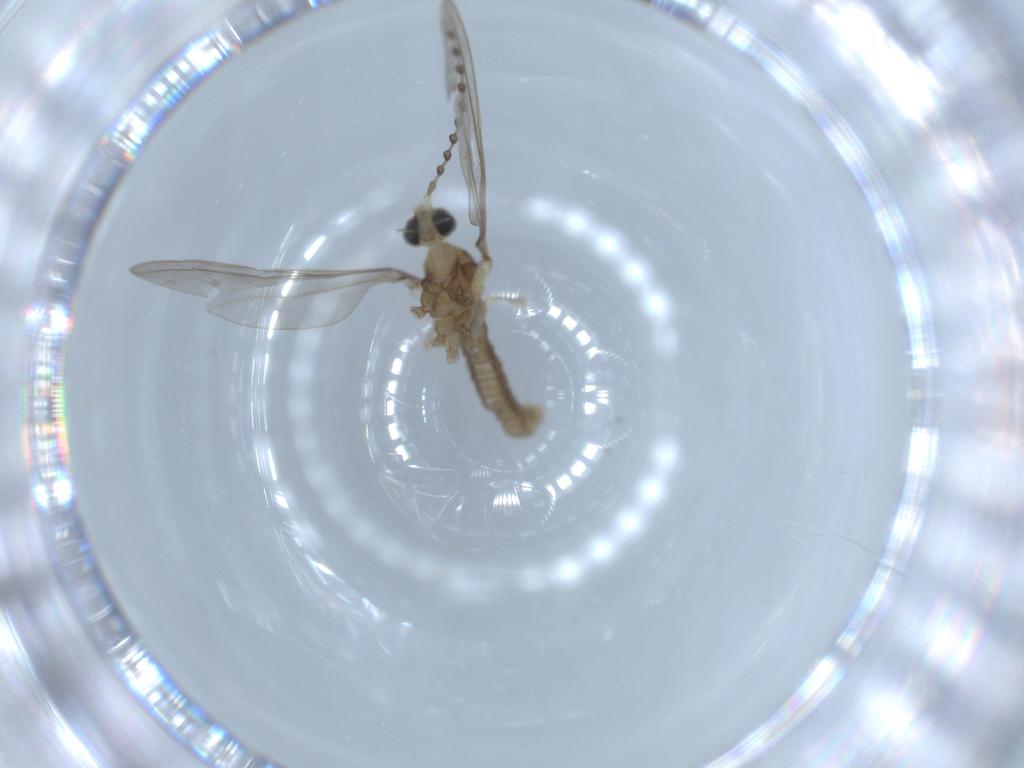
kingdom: Animalia
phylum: Arthropoda
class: Insecta
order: Diptera
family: Cecidomyiidae
